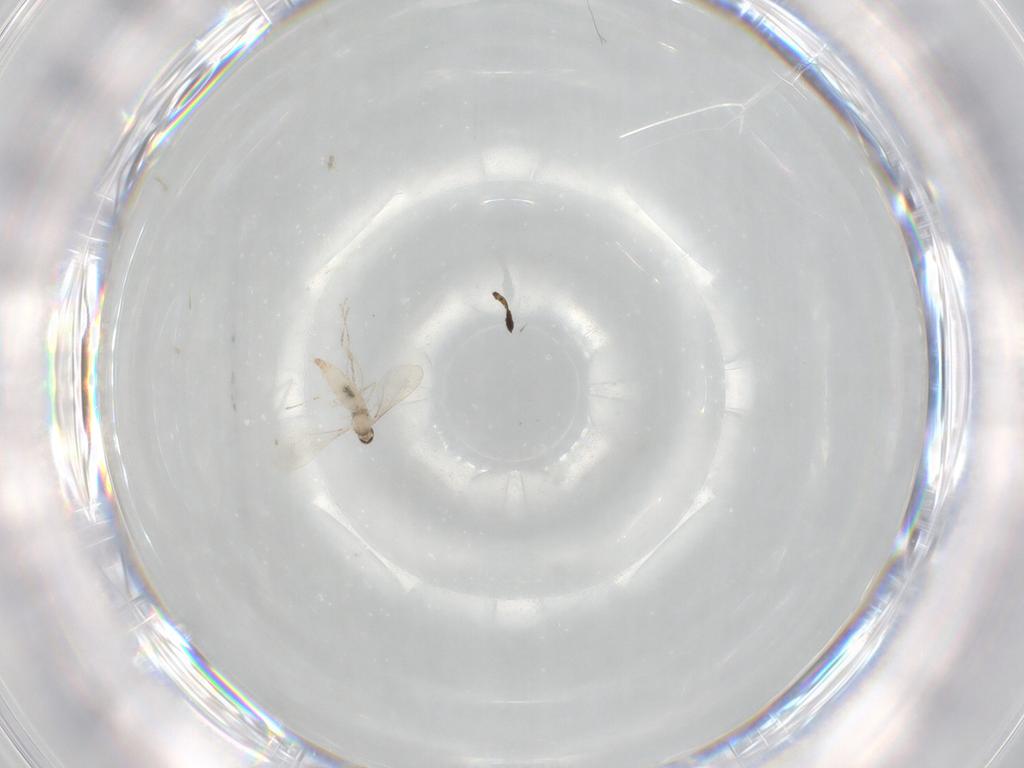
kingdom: Animalia
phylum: Arthropoda
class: Insecta
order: Diptera
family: Cecidomyiidae
